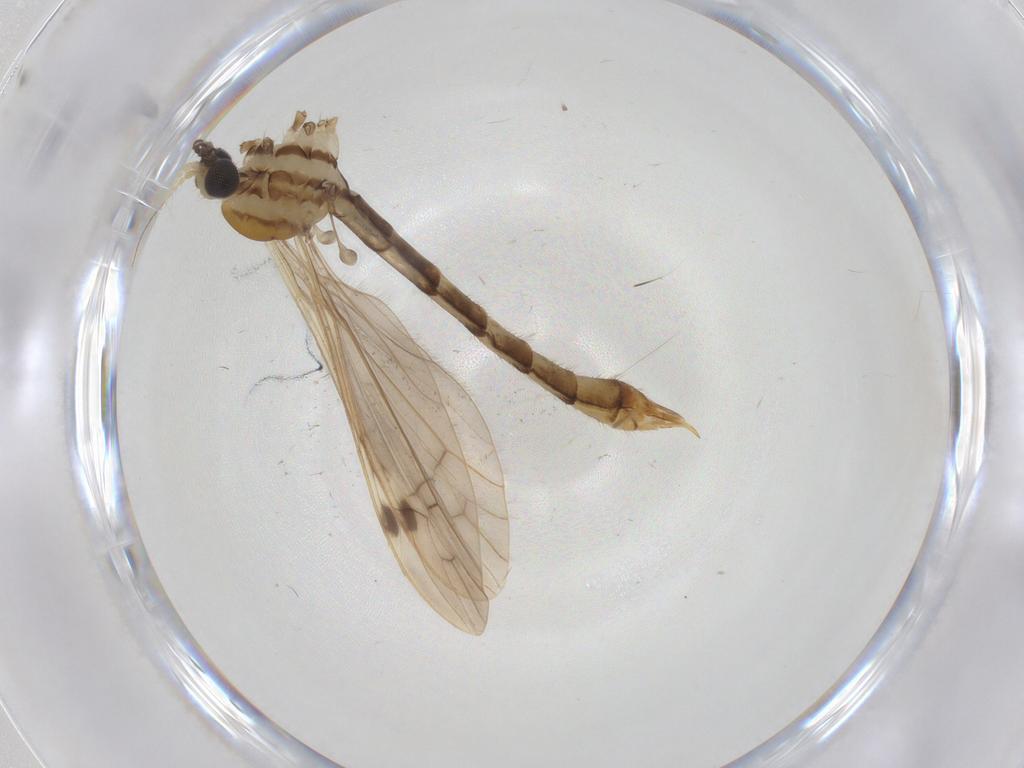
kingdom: Animalia
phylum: Arthropoda
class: Insecta
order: Diptera
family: Limoniidae
